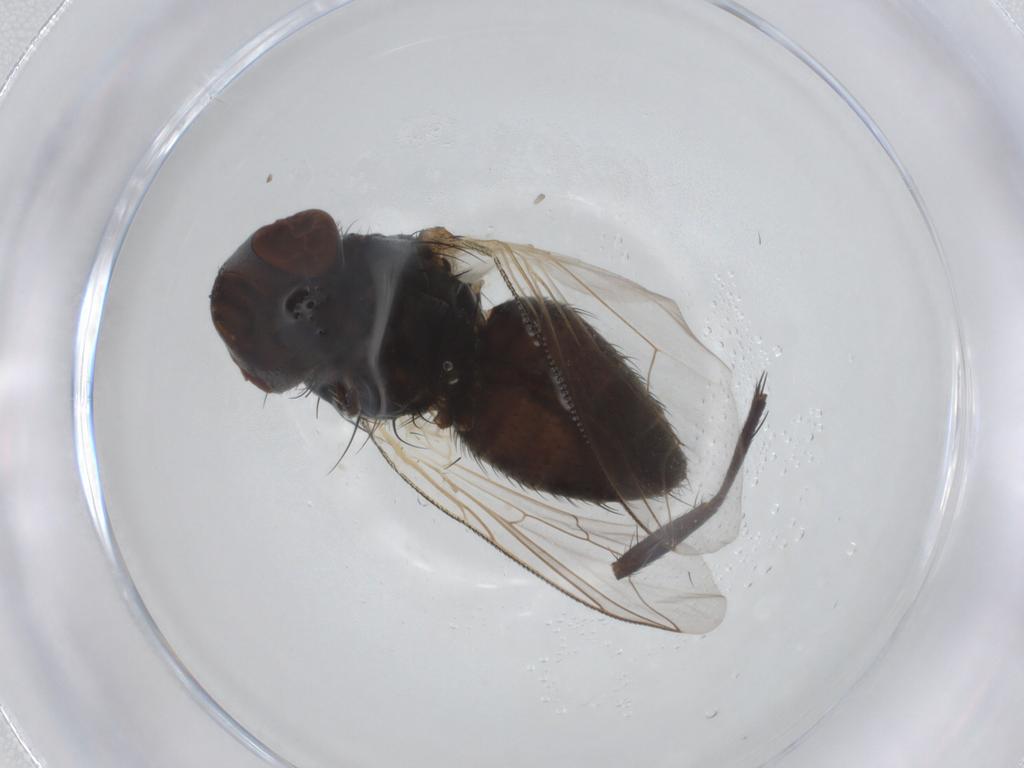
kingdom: Animalia
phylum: Arthropoda
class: Insecta
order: Diptera
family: Sarcophagidae
